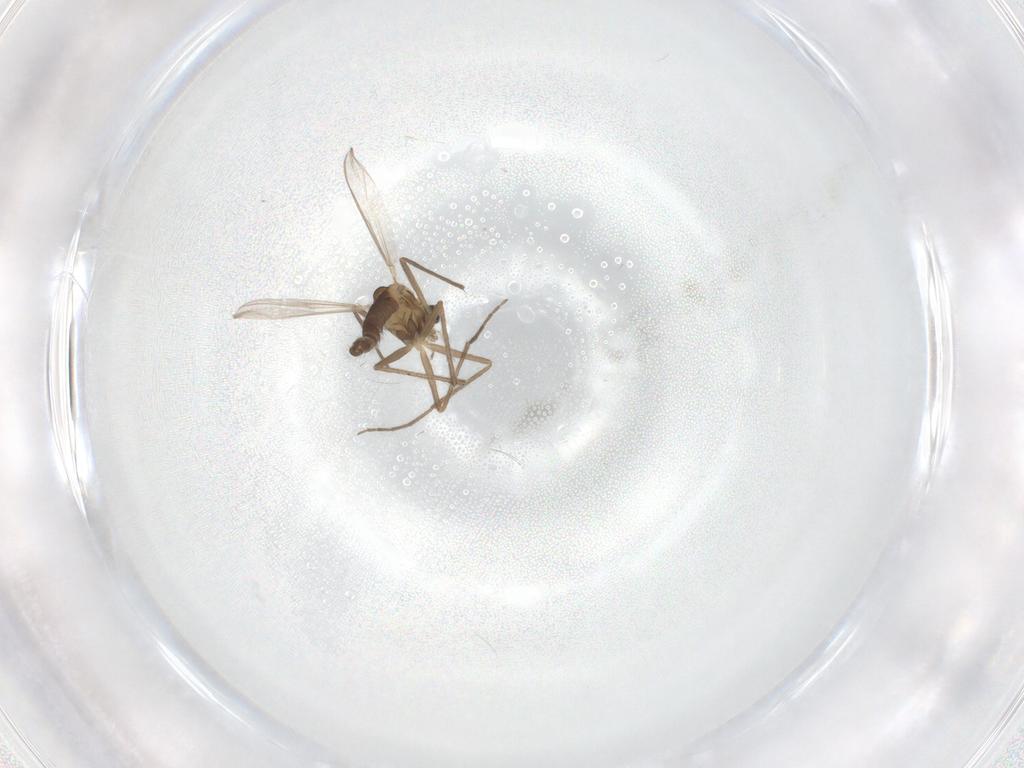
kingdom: Animalia
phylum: Arthropoda
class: Insecta
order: Diptera
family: Chironomidae
